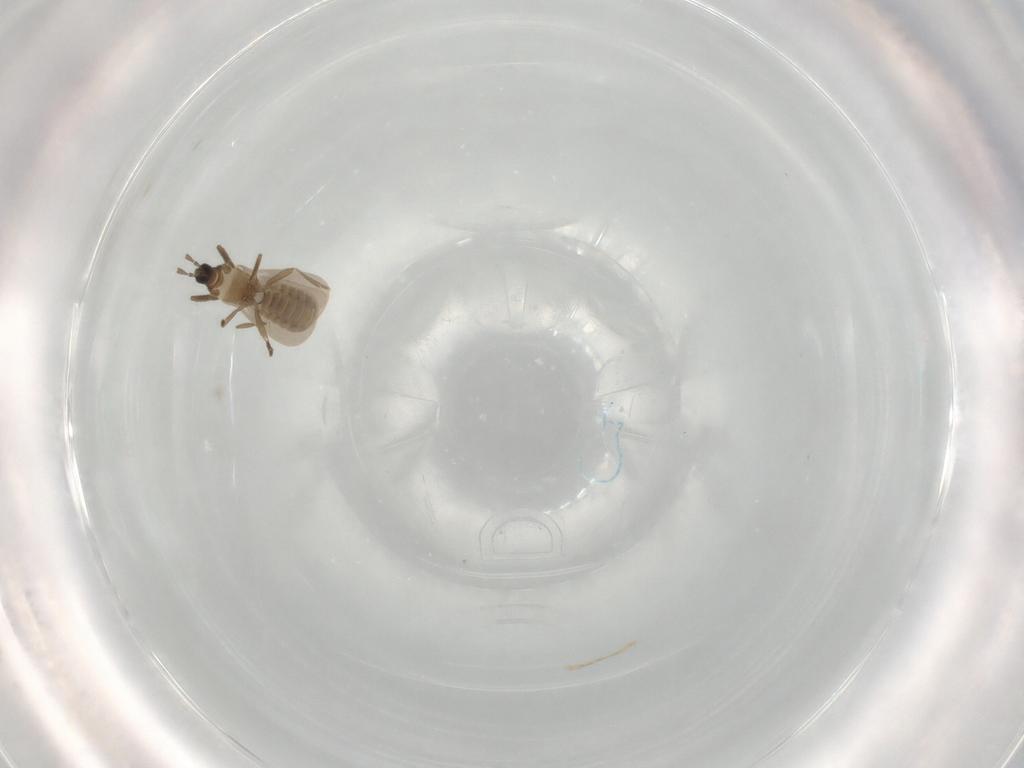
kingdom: Animalia
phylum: Arthropoda
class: Insecta
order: Hemiptera
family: Enicocephalidae
